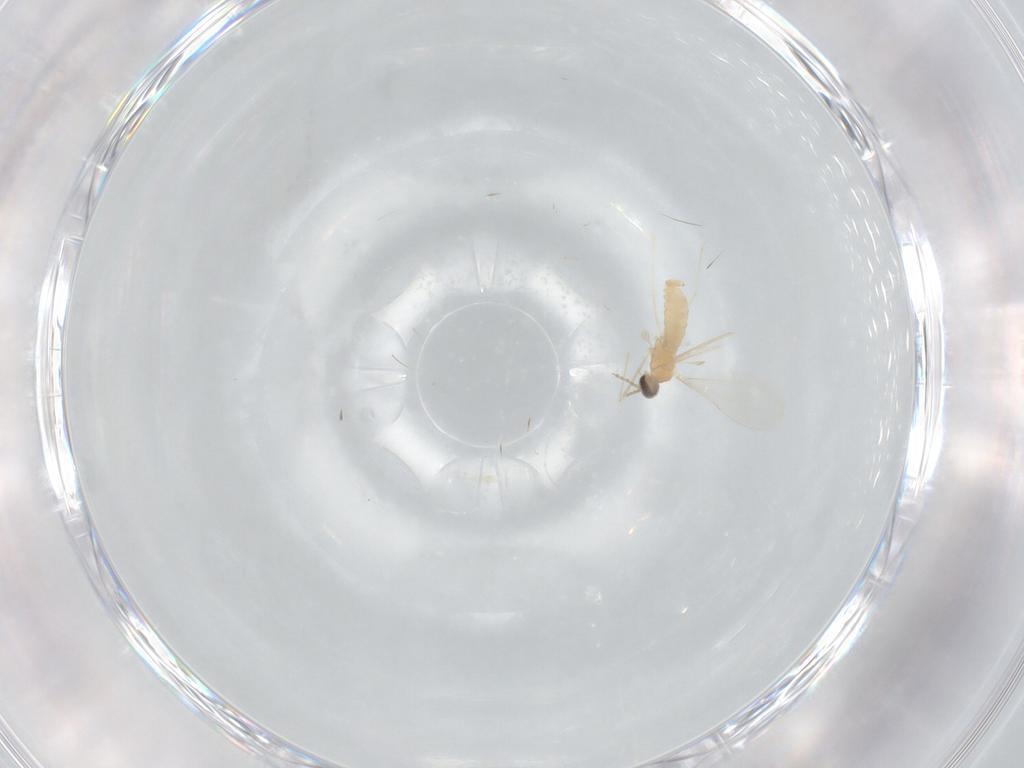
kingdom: Animalia
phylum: Arthropoda
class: Insecta
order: Diptera
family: Cecidomyiidae
